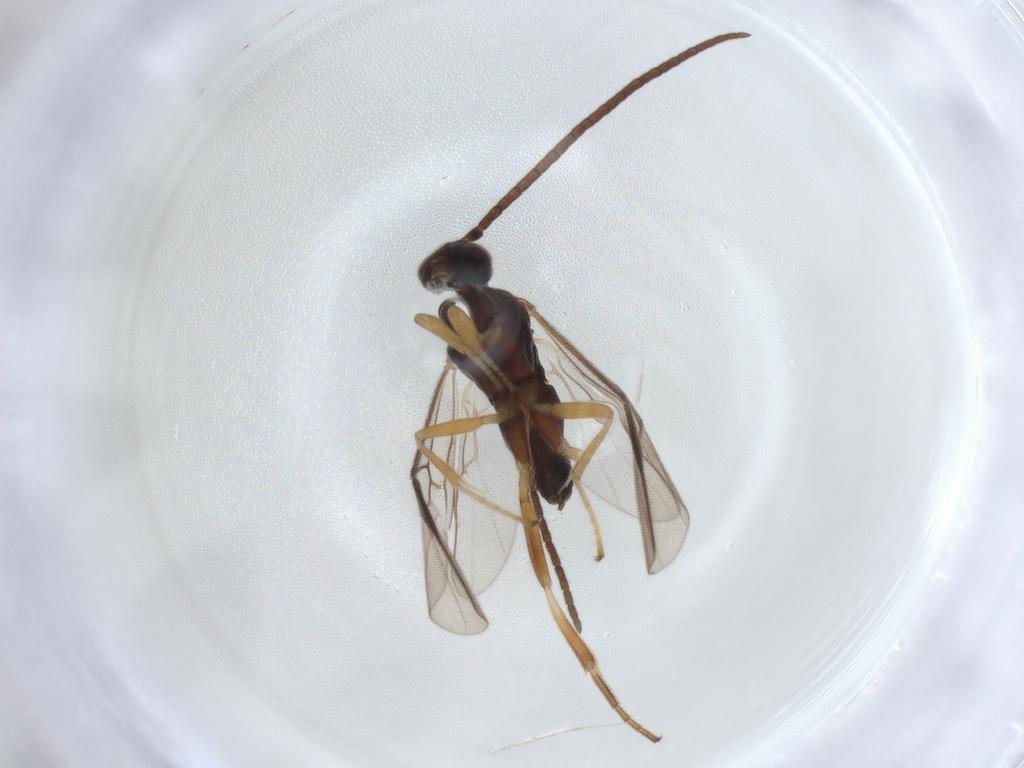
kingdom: Animalia
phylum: Arthropoda
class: Insecta
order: Hymenoptera
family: Braconidae
